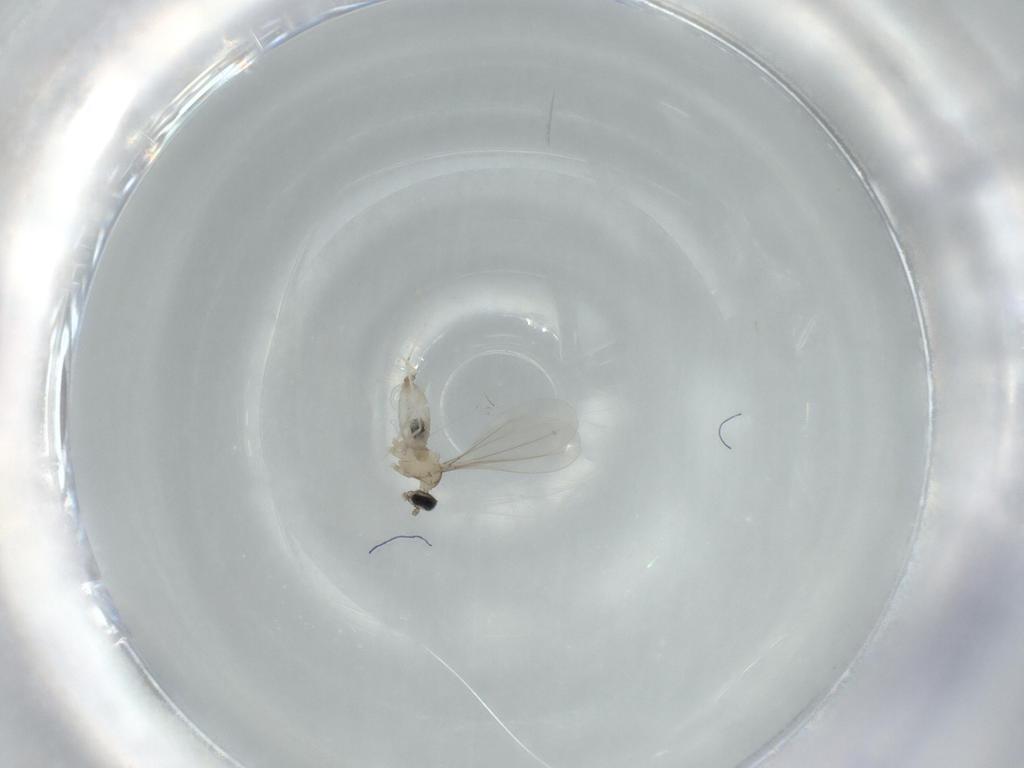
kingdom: Animalia
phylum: Arthropoda
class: Insecta
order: Diptera
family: Cecidomyiidae
